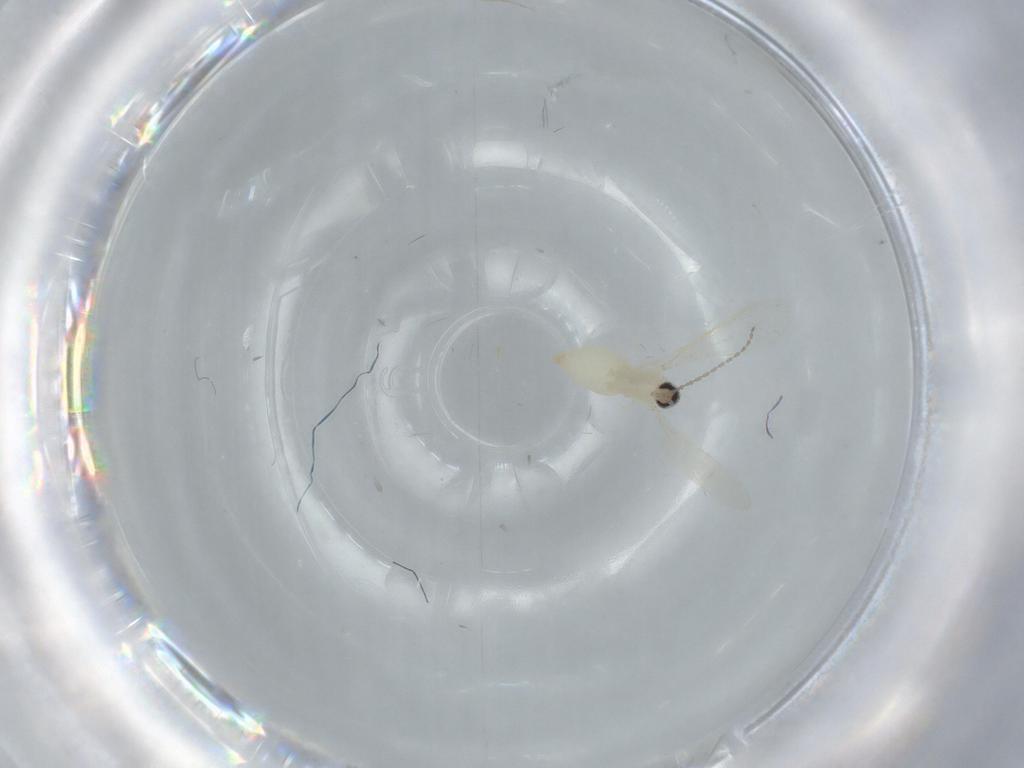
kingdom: Animalia
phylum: Arthropoda
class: Insecta
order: Diptera
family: Cecidomyiidae
